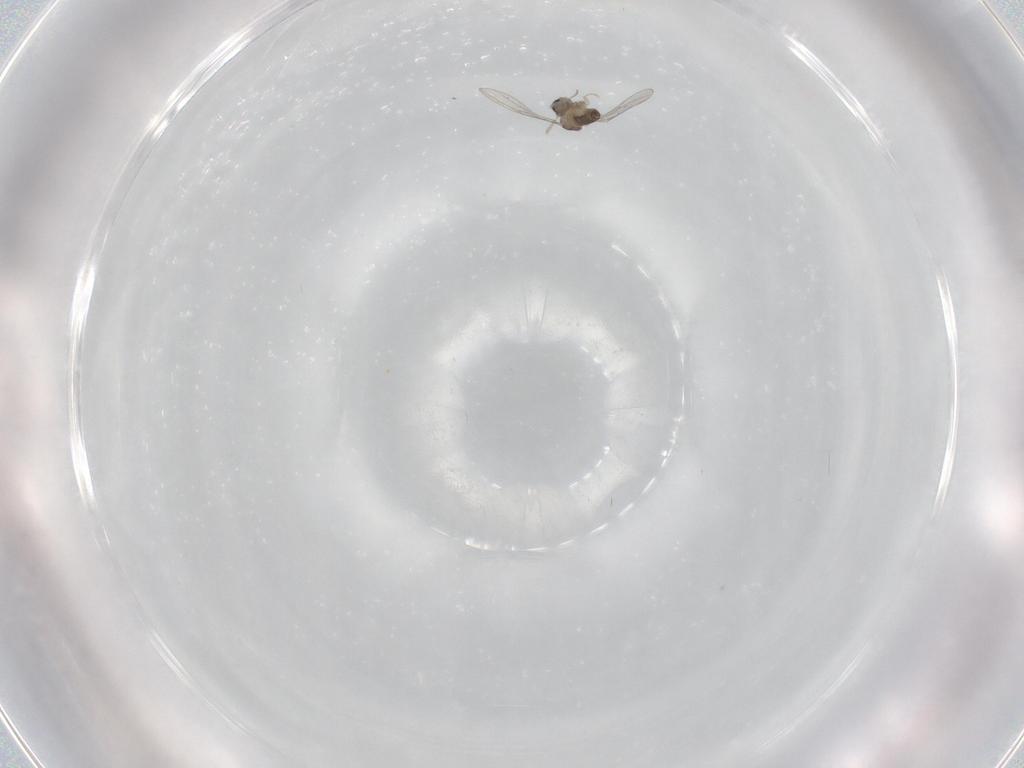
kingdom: Animalia
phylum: Arthropoda
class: Insecta
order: Diptera
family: Cecidomyiidae
